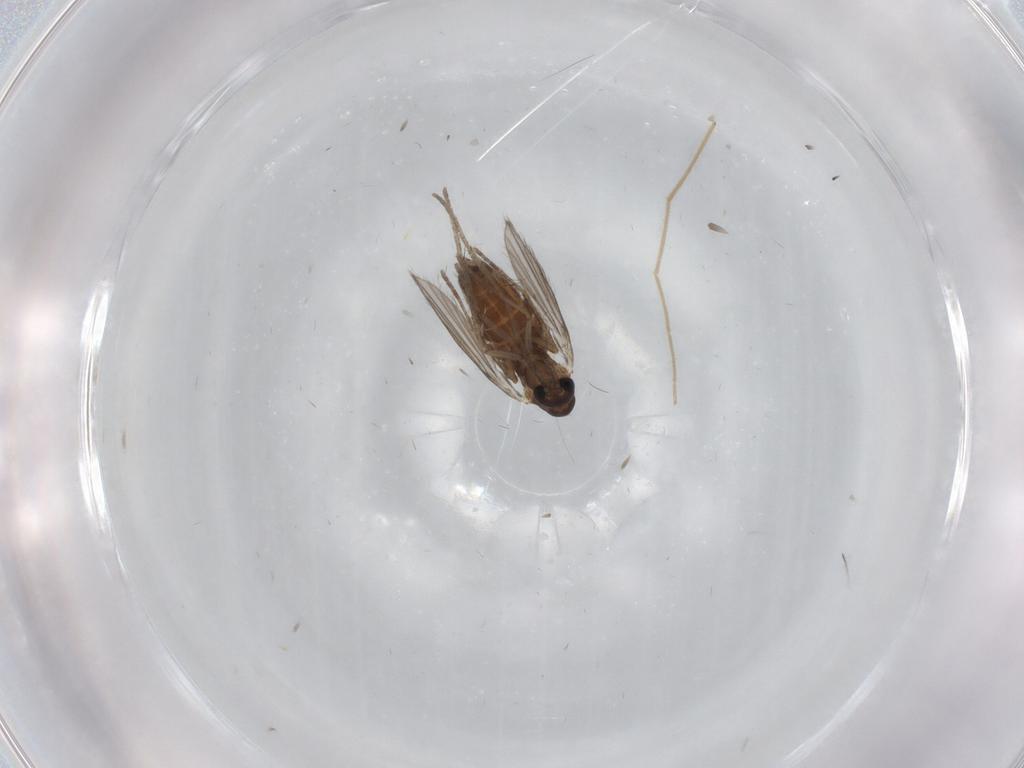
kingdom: Animalia
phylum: Arthropoda
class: Insecta
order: Diptera
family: Chironomidae
